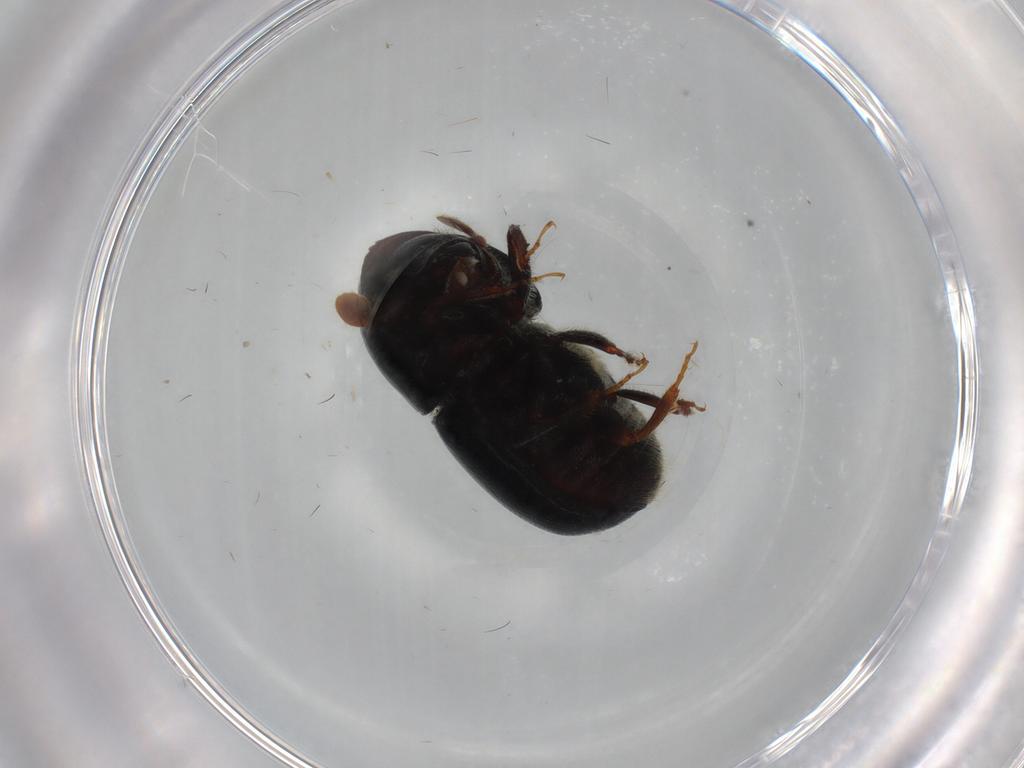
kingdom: Animalia
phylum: Arthropoda
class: Insecta
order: Coleoptera
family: Curculionidae
